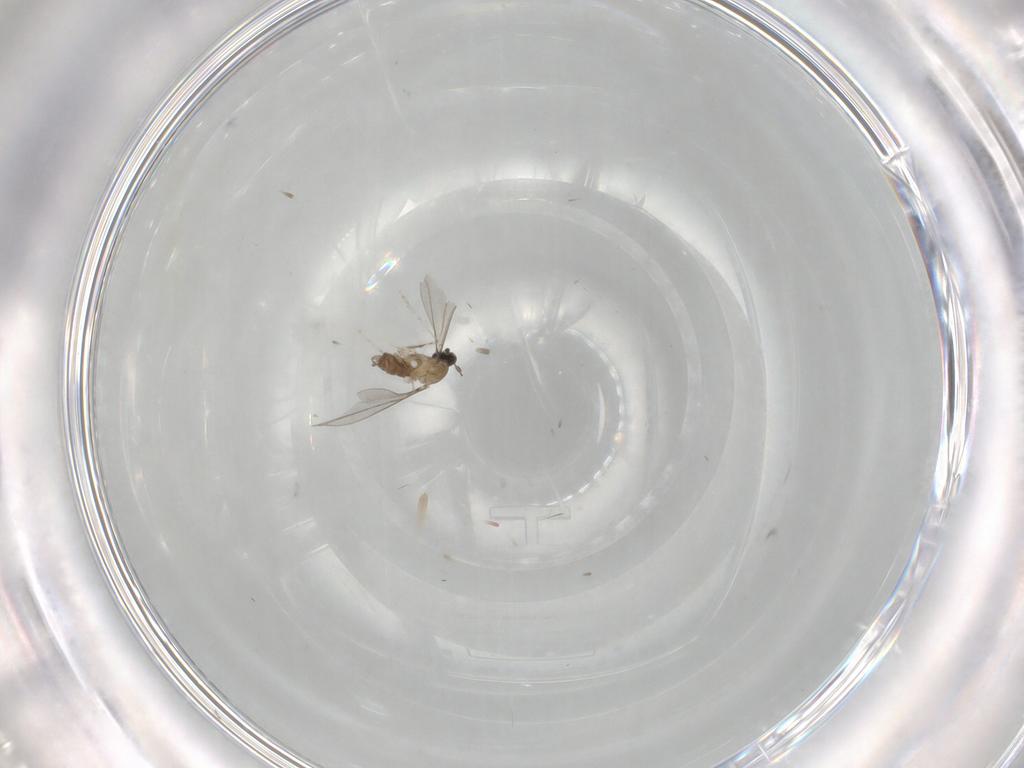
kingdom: Animalia
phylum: Arthropoda
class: Insecta
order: Diptera
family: Cecidomyiidae
